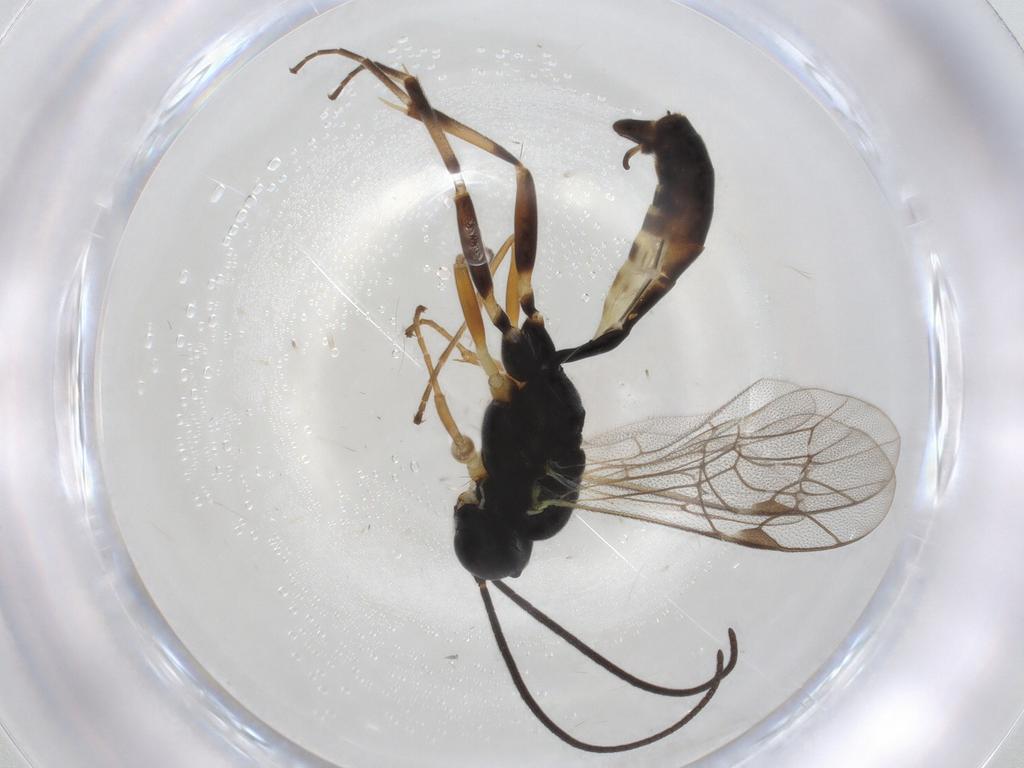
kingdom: Animalia
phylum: Arthropoda
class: Insecta
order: Hymenoptera
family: Ichneumonidae
